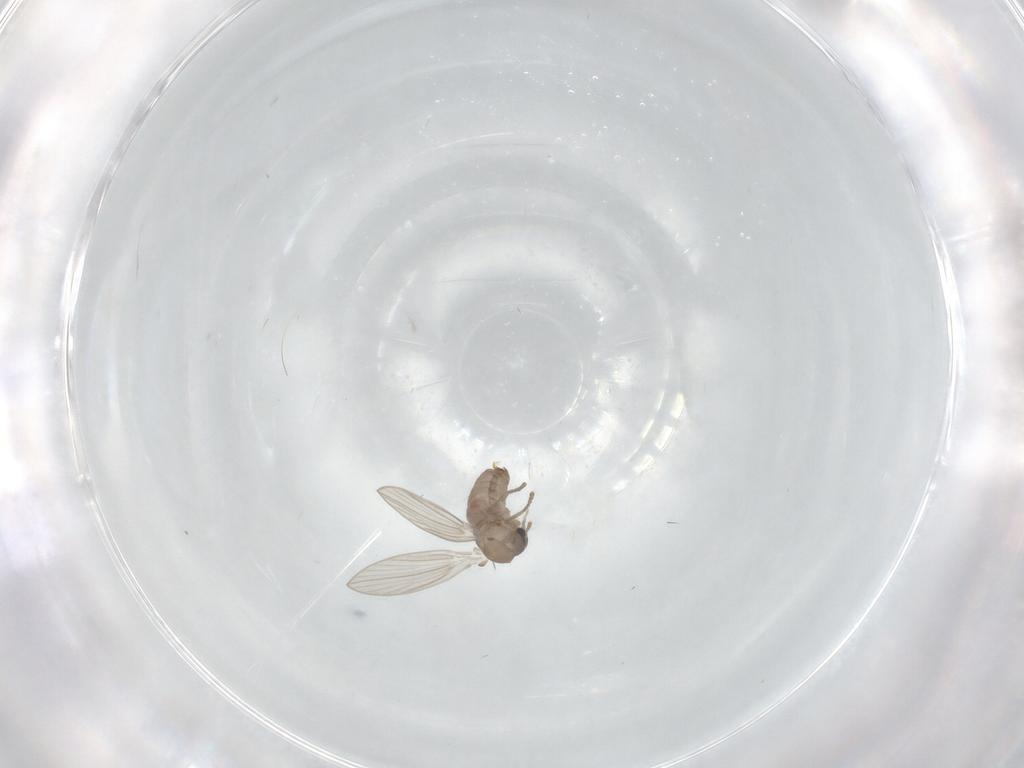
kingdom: Animalia
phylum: Arthropoda
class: Insecta
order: Diptera
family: Psychodidae
